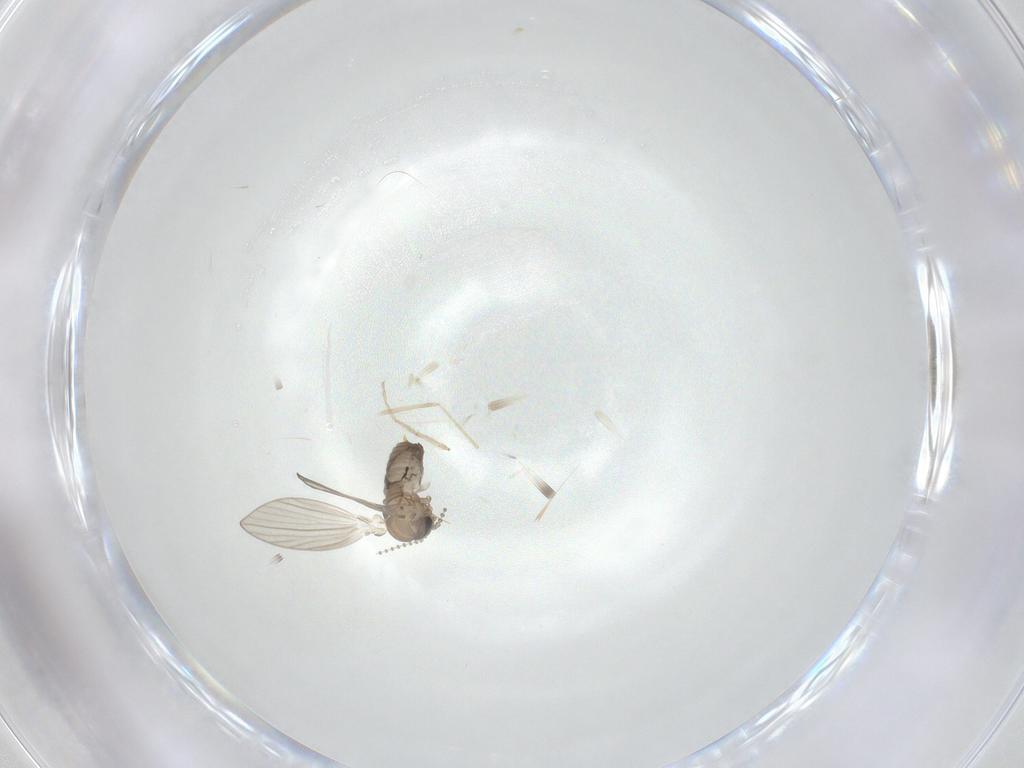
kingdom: Animalia
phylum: Arthropoda
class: Insecta
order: Diptera
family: Psychodidae
